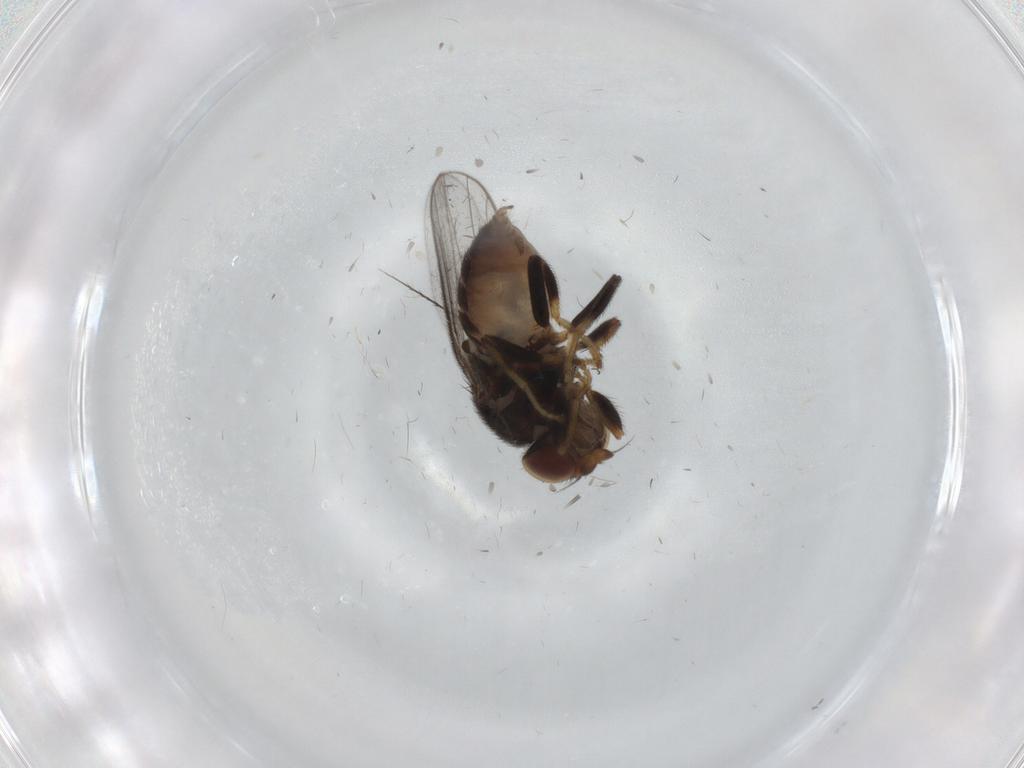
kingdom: Animalia
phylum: Arthropoda
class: Insecta
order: Diptera
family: Chloropidae
